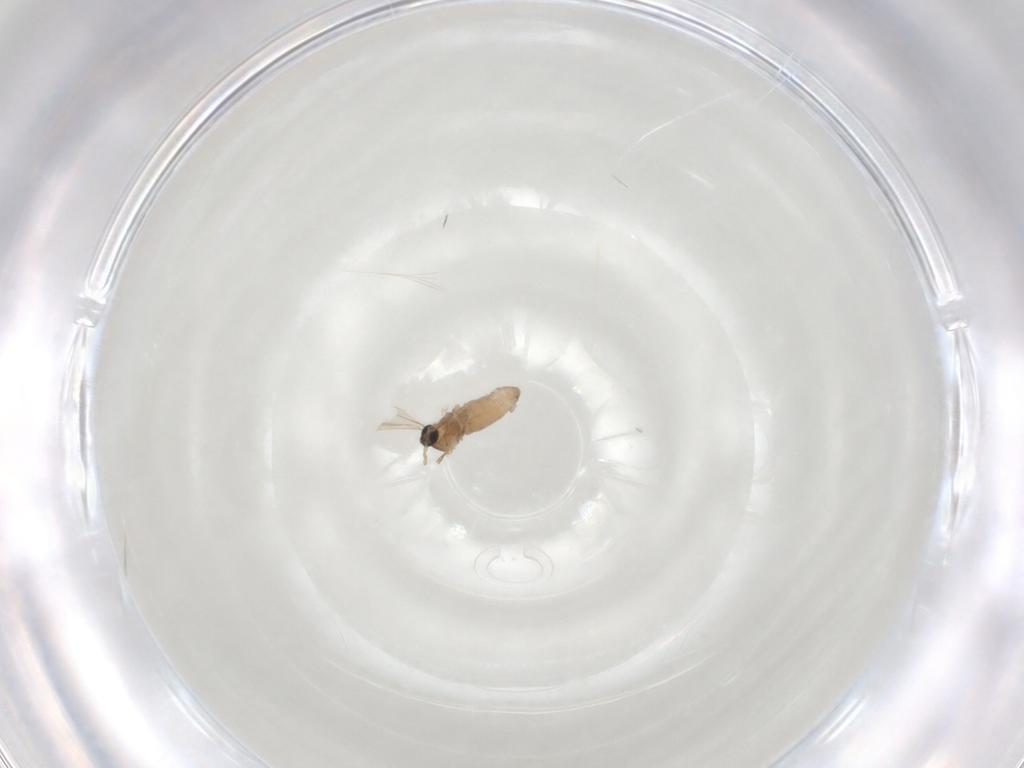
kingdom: Animalia
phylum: Arthropoda
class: Insecta
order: Diptera
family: Cecidomyiidae
